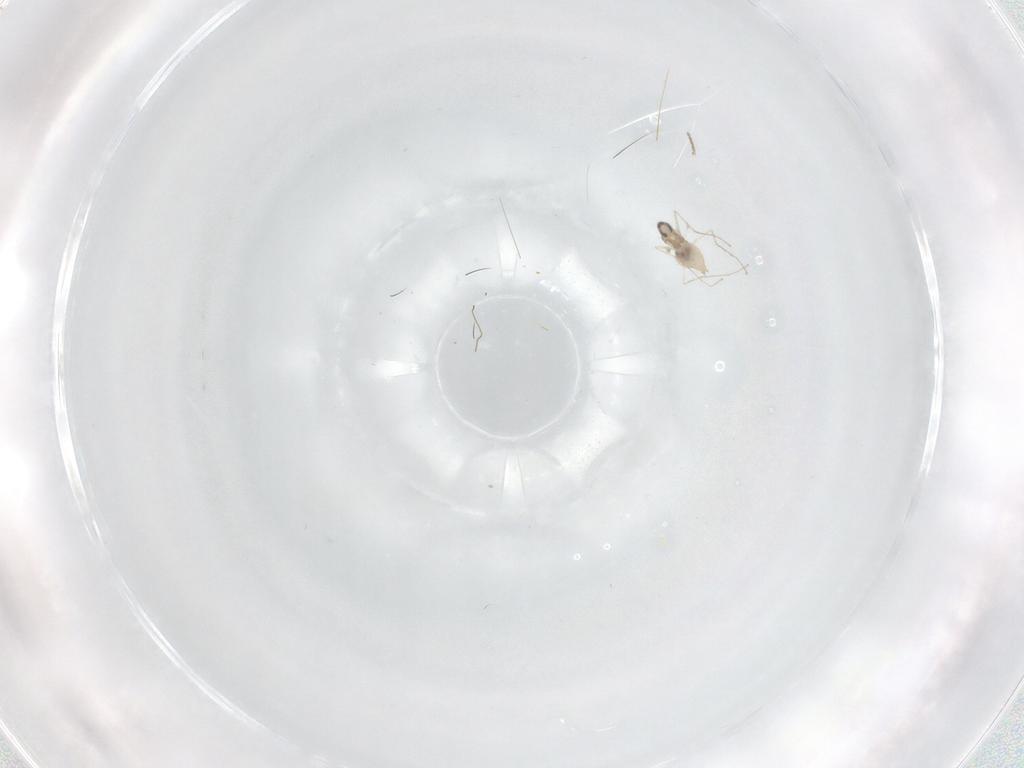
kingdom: Animalia
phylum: Arthropoda
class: Insecta
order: Diptera
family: Cecidomyiidae
